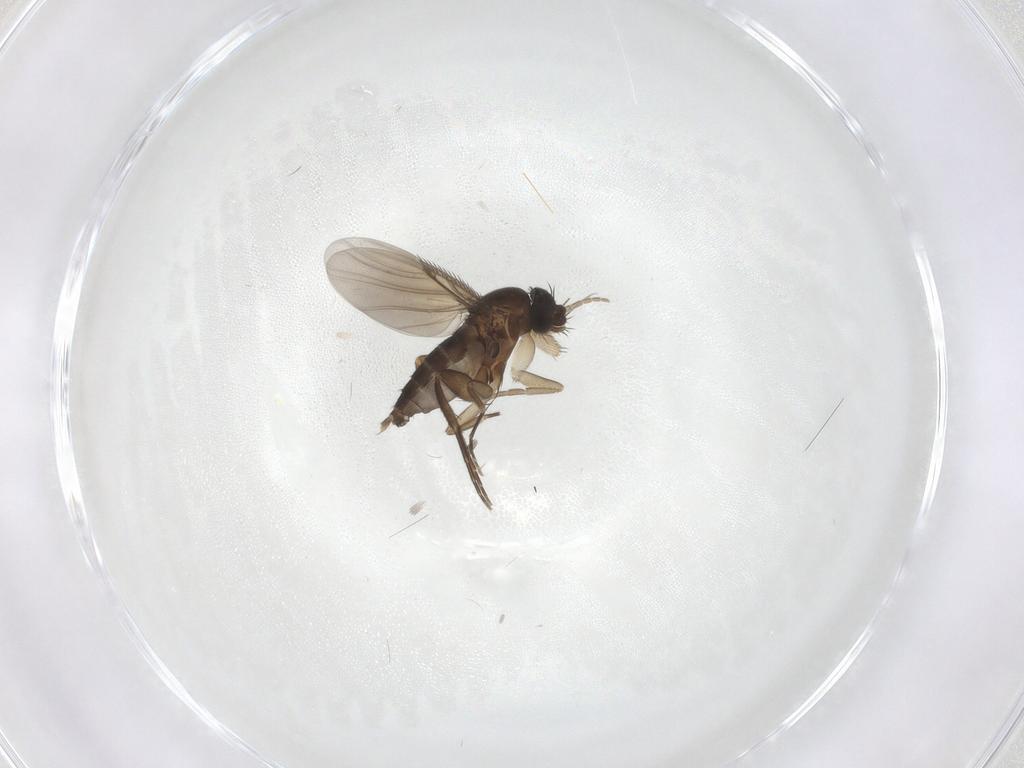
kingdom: Animalia
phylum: Arthropoda
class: Insecta
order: Diptera
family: Phoridae
